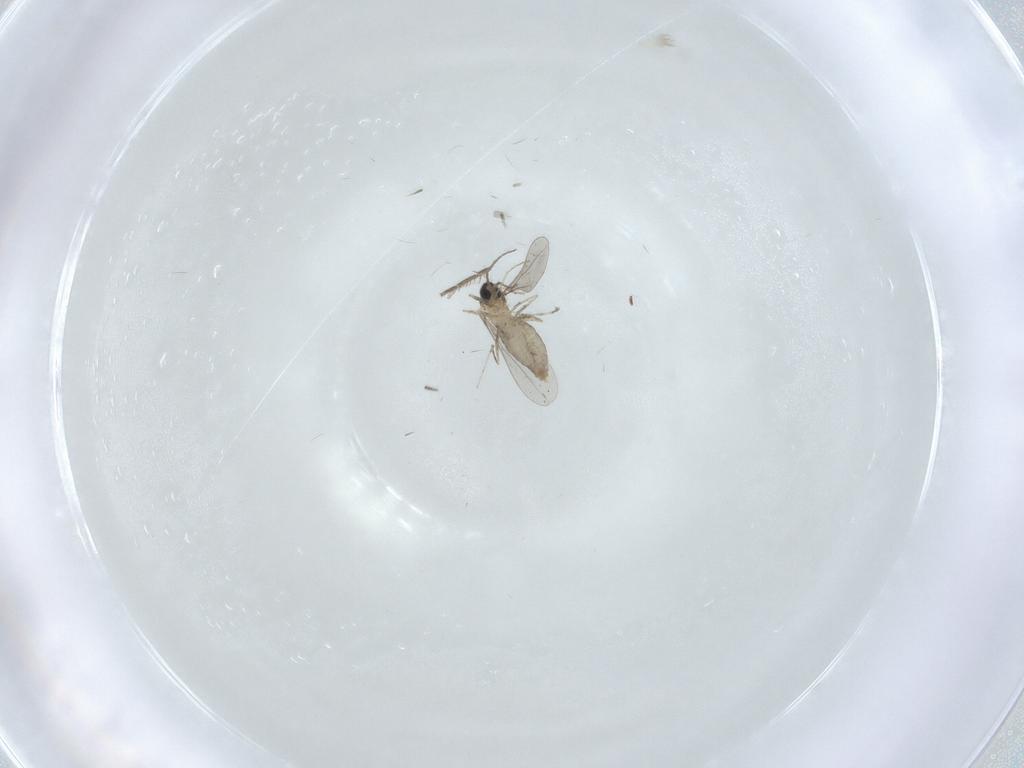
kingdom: Animalia
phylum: Arthropoda
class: Insecta
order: Diptera
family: Cecidomyiidae
